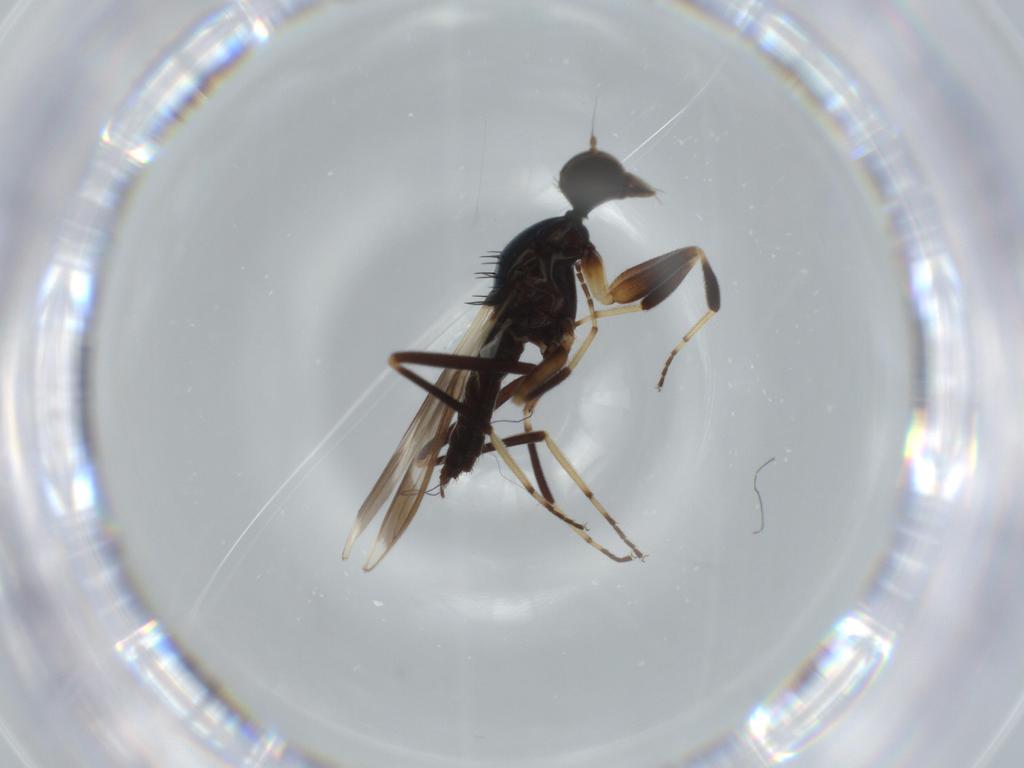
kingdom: Animalia
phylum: Arthropoda
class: Insecta
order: Diptera
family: Hybotidae
